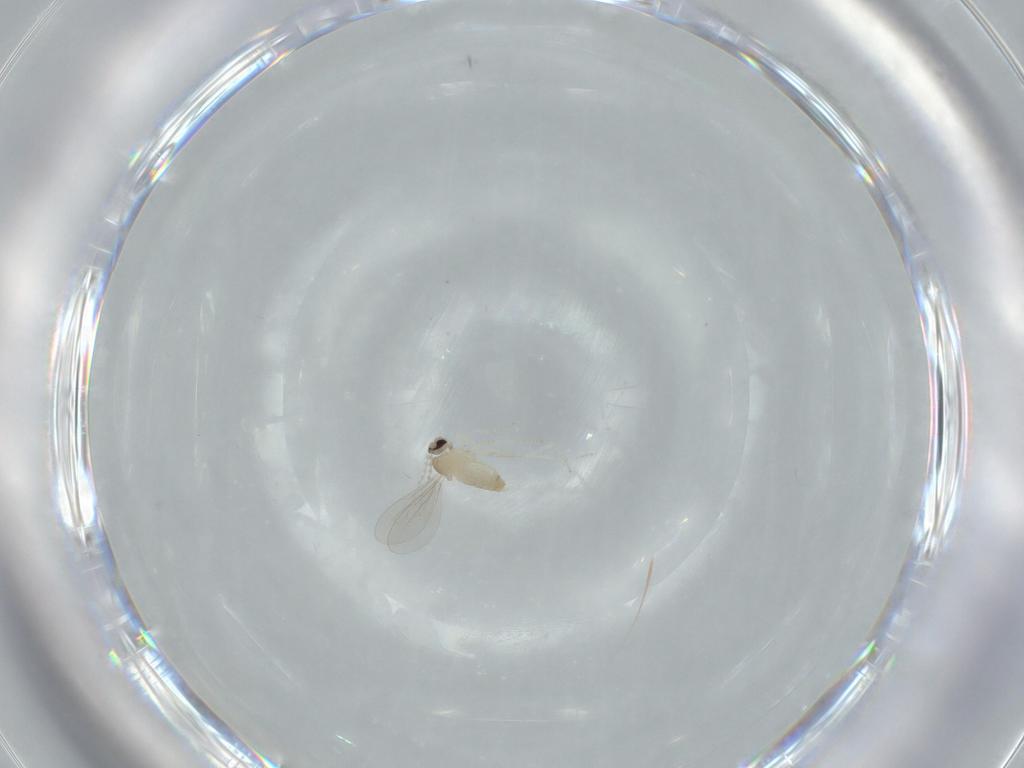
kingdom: Animalia
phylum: Arthropoda
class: Insecta
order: Diptera
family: Cecidomyiidae
